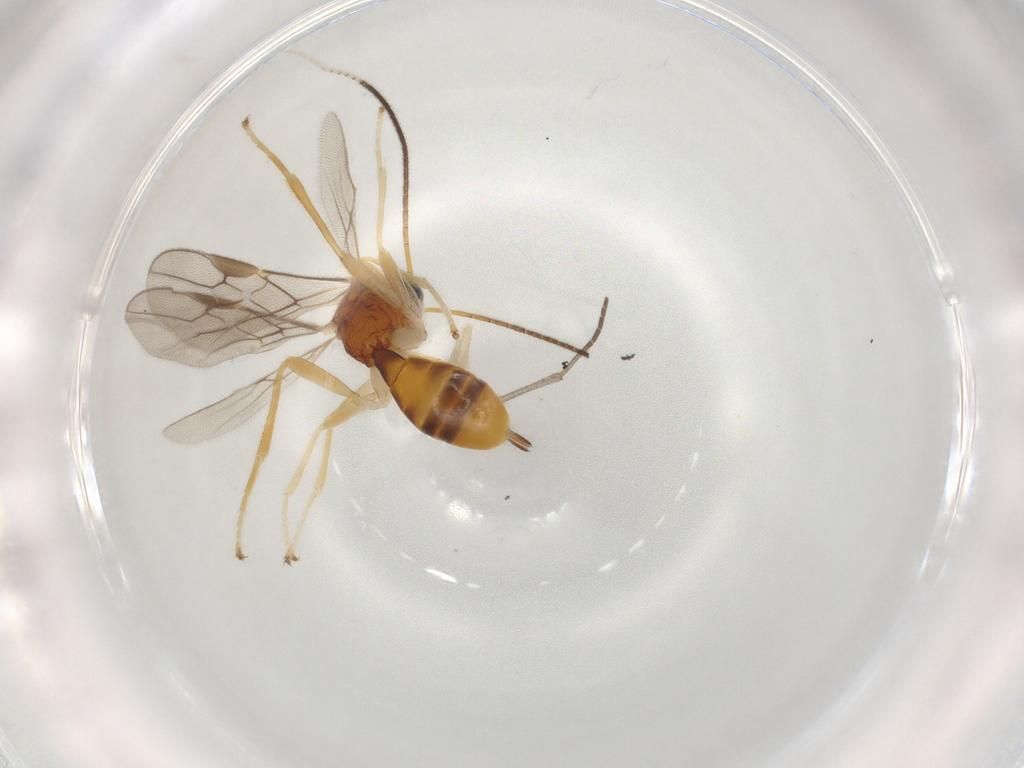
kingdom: Animalia
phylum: Arthropoda
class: Insecta
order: Hymenoptera
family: Braconidae
